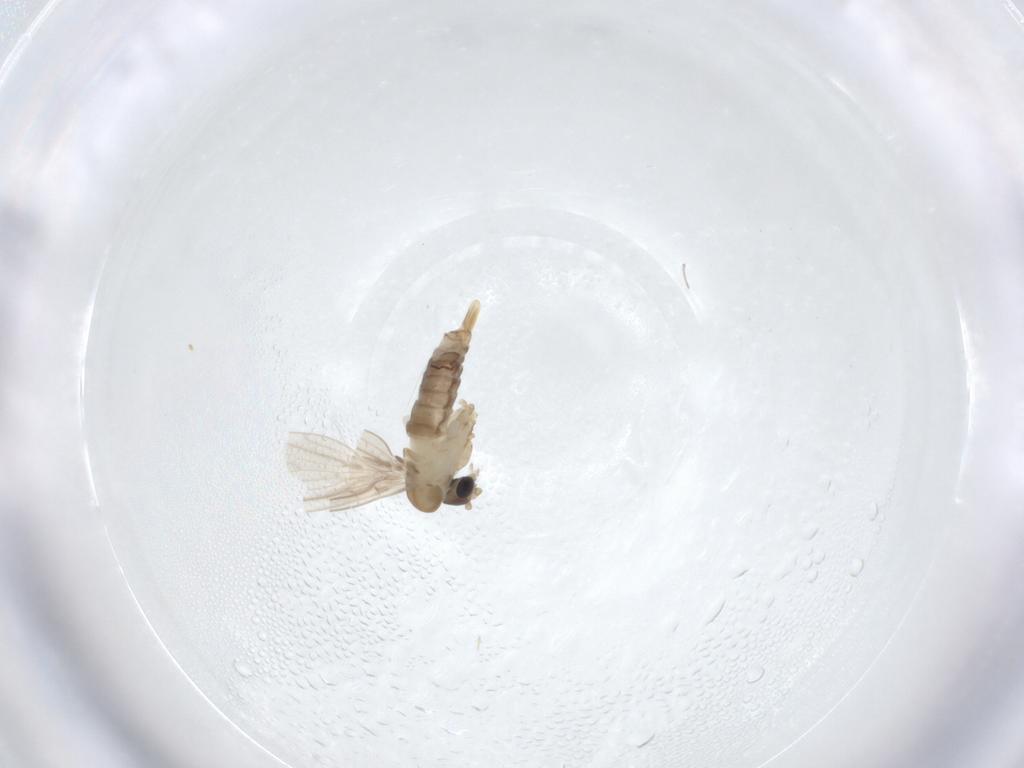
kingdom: Animalia
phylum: Arthropoda
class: Insecta
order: Diptera
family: Psychodidae
